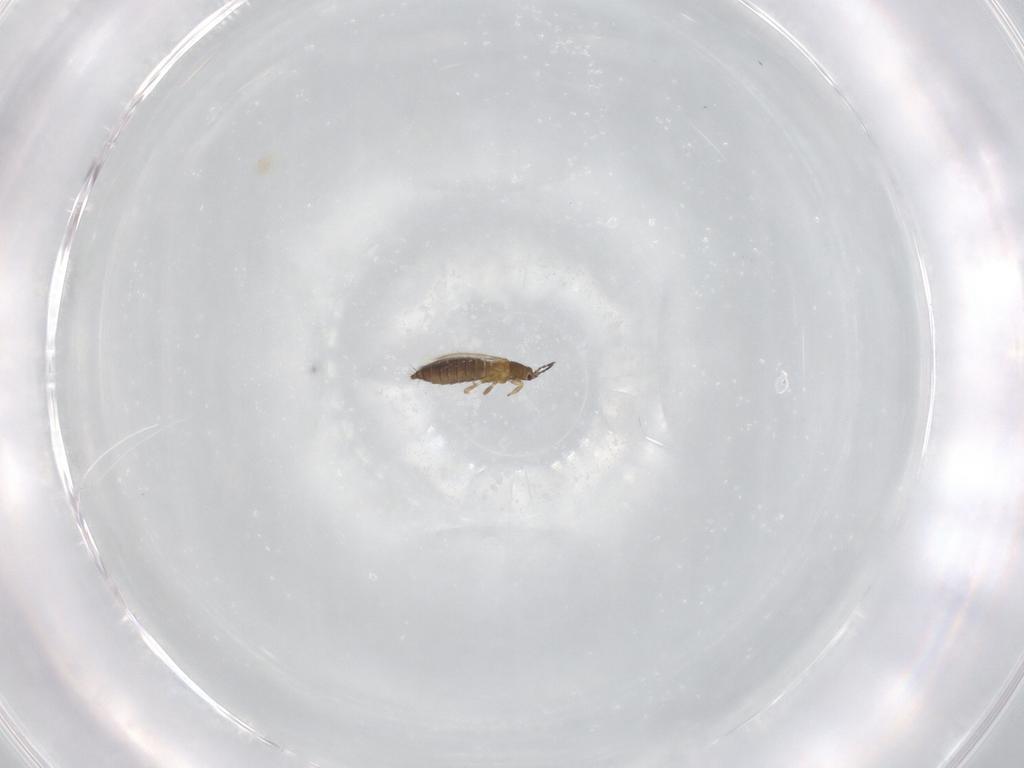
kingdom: Animalia
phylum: Arthropoda
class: Insecta
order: Thysanoptera
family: Thripidae
